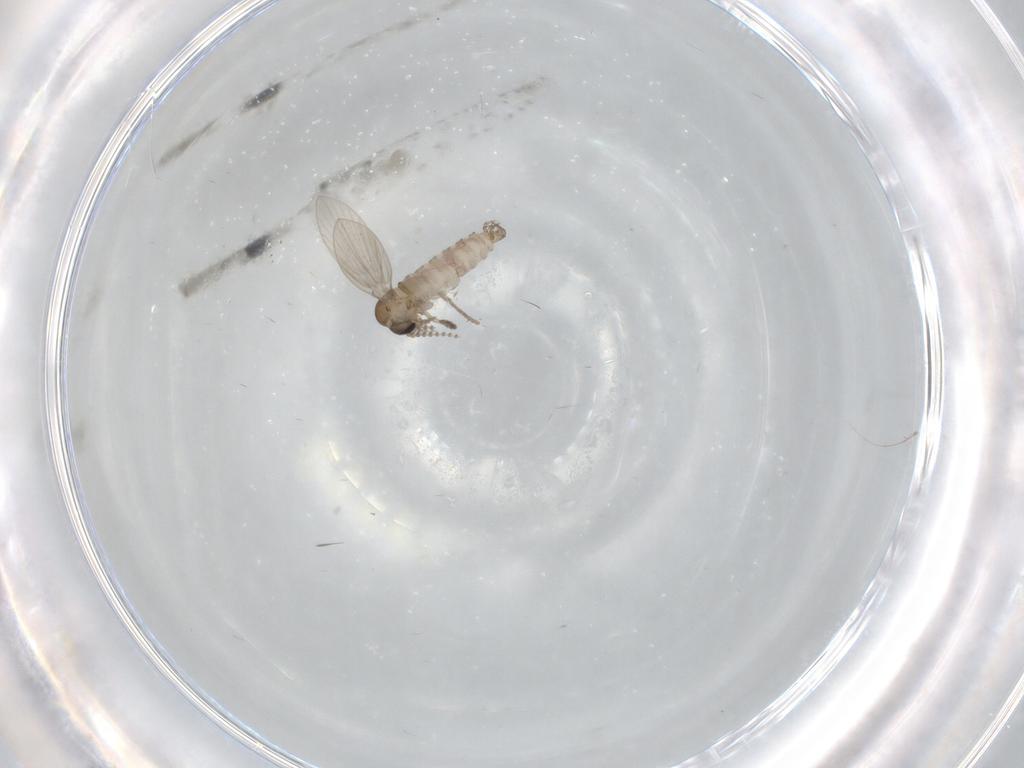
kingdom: Animalia
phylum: Arthropoda
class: Insecta
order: Diptera
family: Psychodidae
